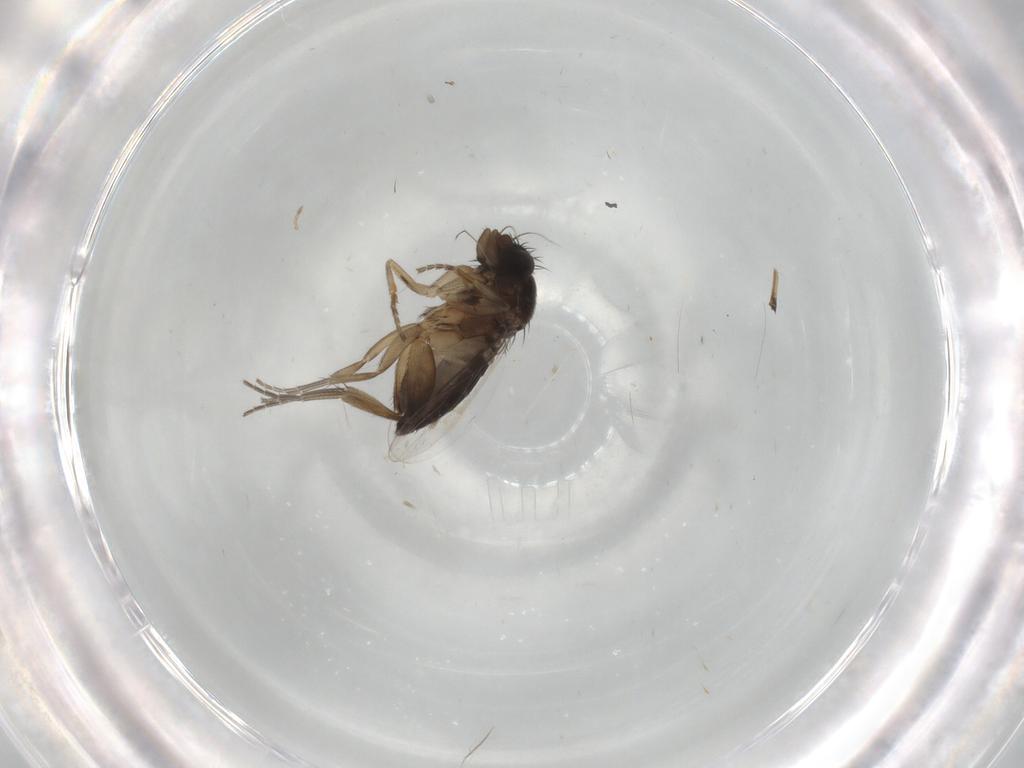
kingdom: Animalia
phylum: Arthropoda
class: Insecta
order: Diptera
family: Phoridae
